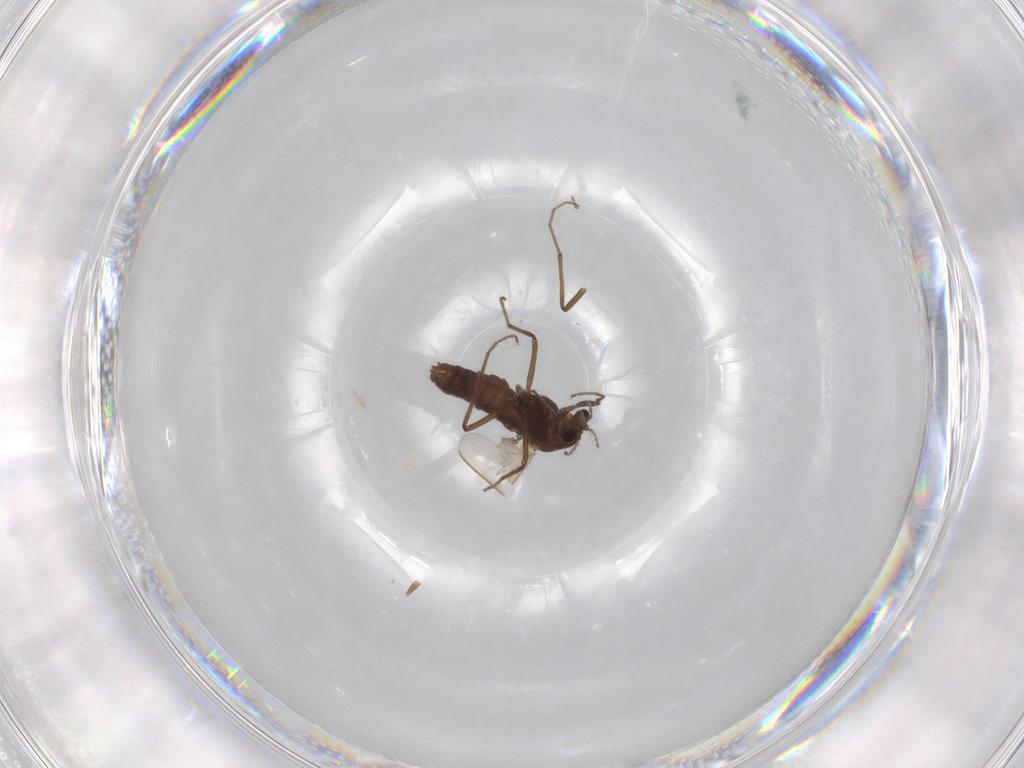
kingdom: Animalia
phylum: Arthropoda
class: Insecta
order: Diptera
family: Chironomidae
